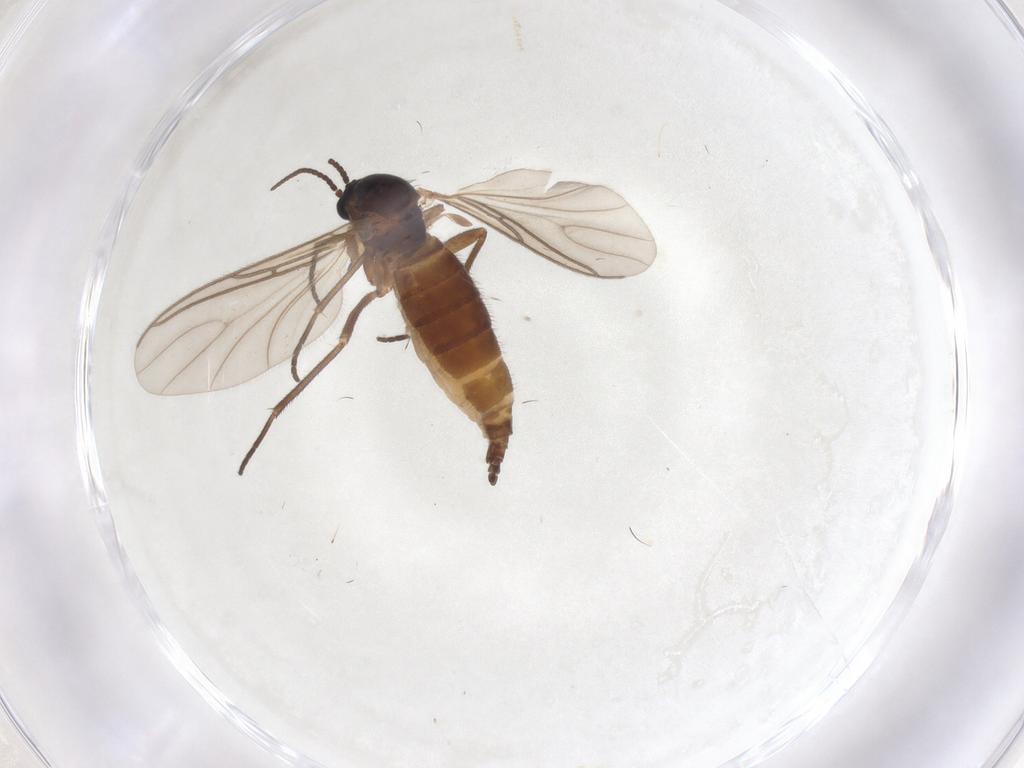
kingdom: Animalia
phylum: Arthropoda
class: Insecta
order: Diptera
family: Sciaridae
